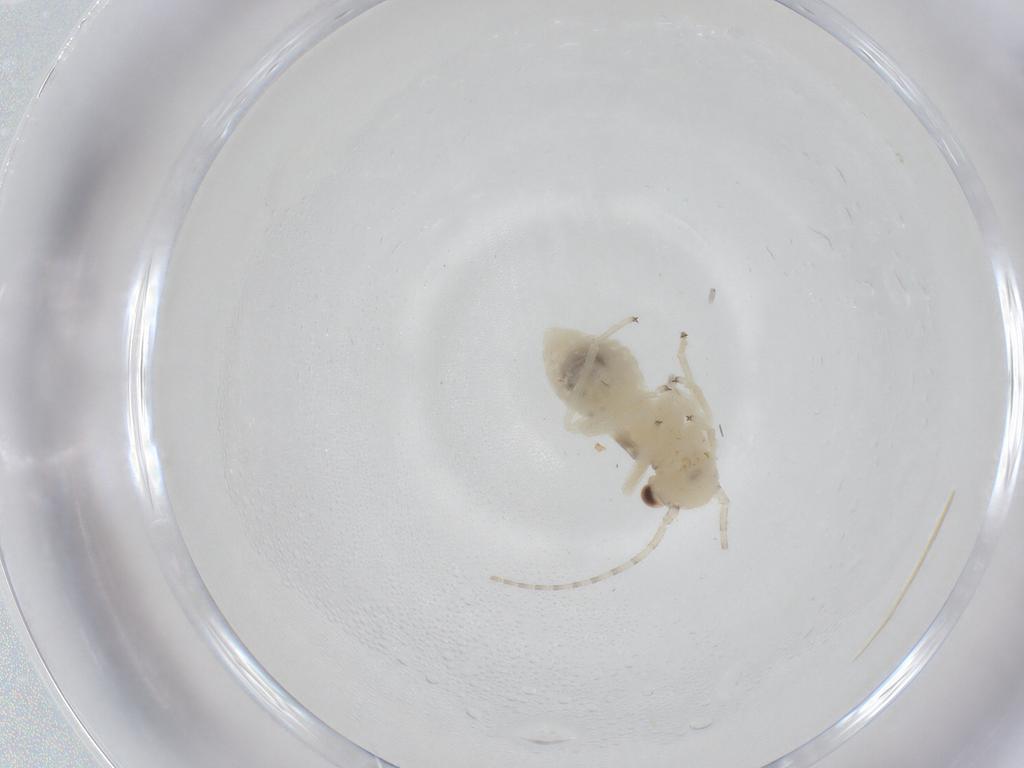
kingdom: Animalia
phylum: Arthropoda
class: Insecta
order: Psocodea
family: Amphipsocidae
